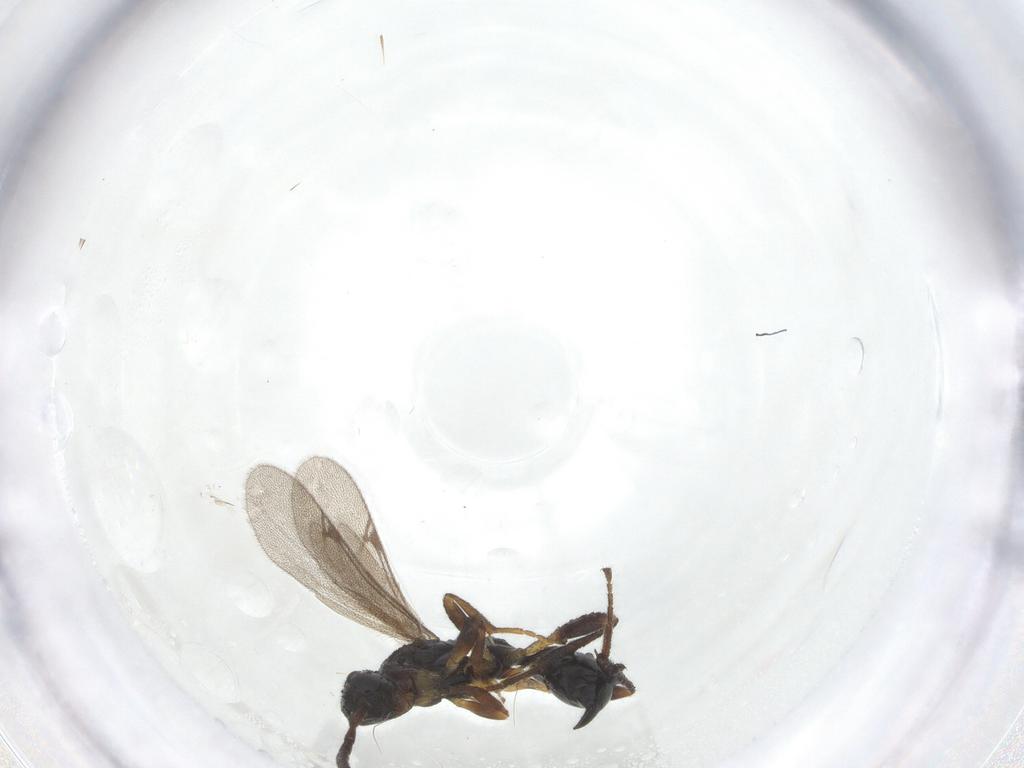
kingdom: Animalia
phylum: Arthropoda
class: Insecta
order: Hymenoptera
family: Proctotrupidae
